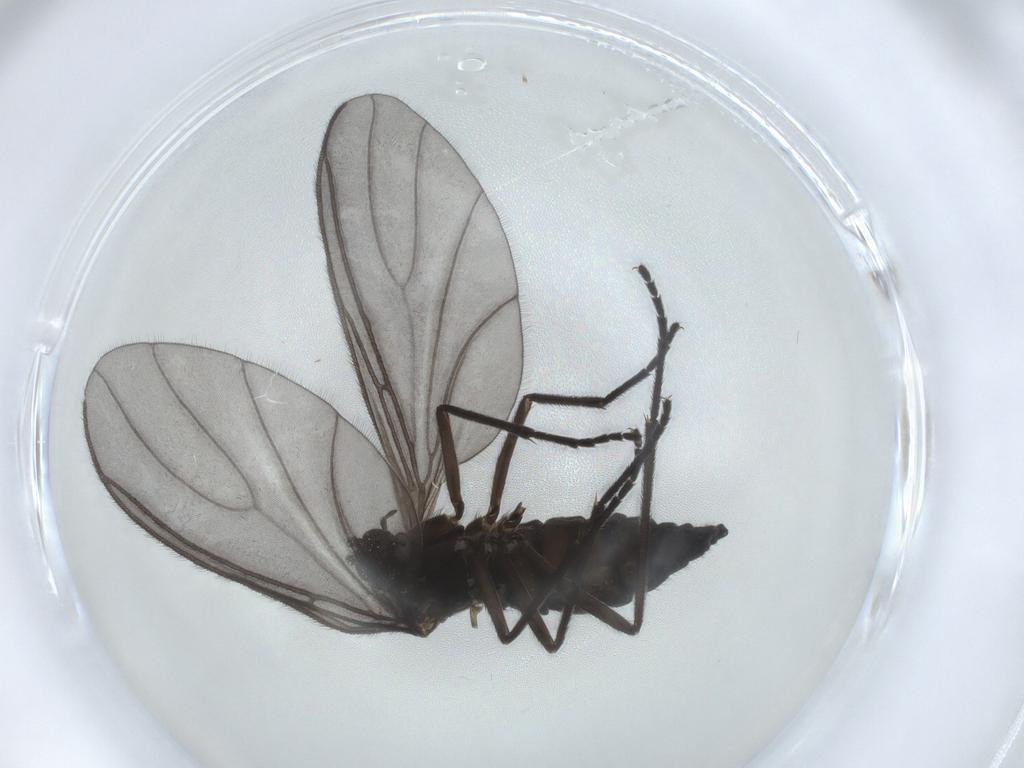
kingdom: Animalia
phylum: Arthropoda
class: Insecta
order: Diptera
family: Sciaridae
